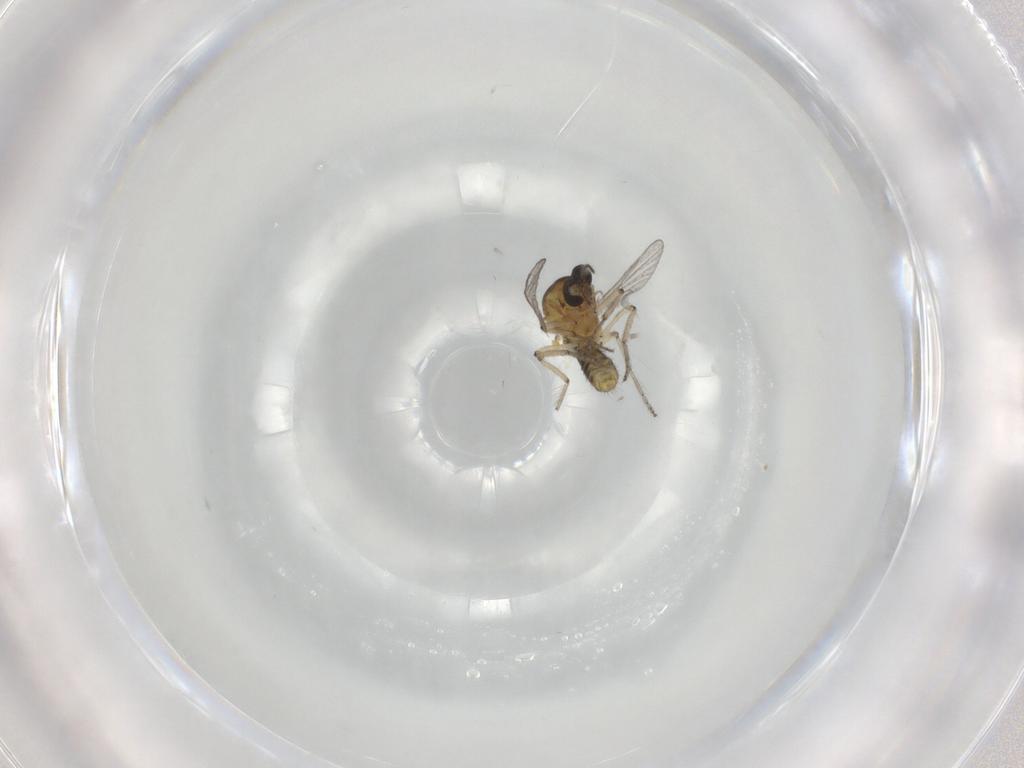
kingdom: Animalia
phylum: Arthropoda
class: Insecta
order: Diptera
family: Ceratopogonidae
